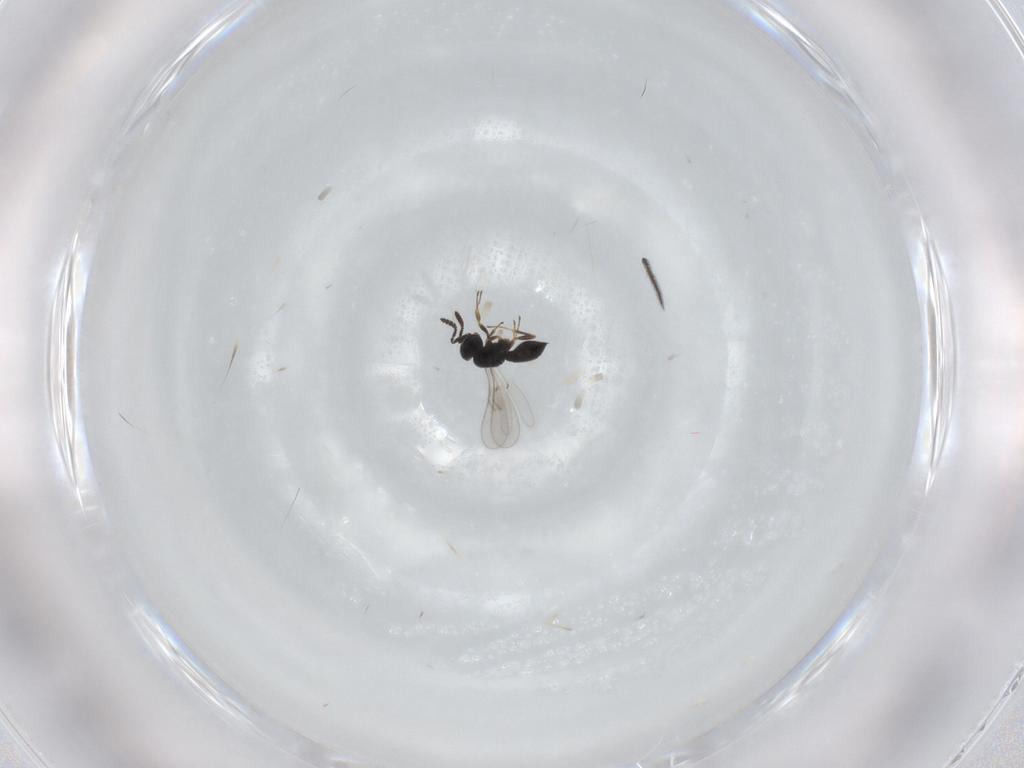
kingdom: Animalia
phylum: Arthropoda
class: Insecta
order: Hymenoptera
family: Scelionidae
